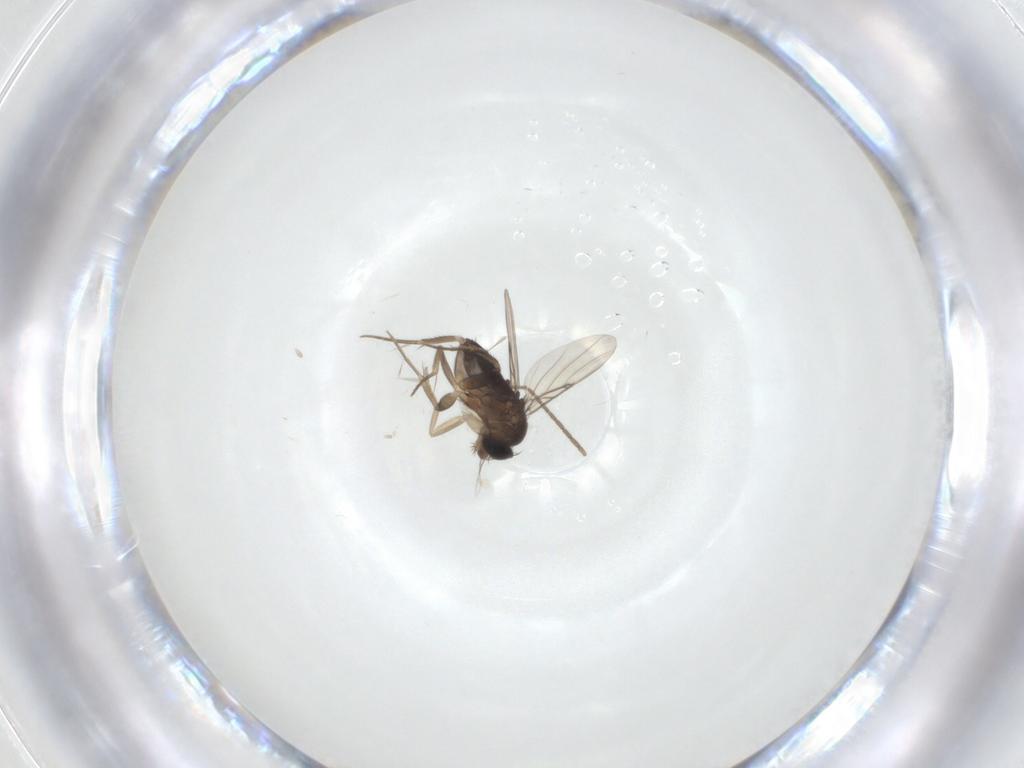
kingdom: Animalia
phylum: Arthropoda
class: Insecta
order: Diptera
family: Phoridae
